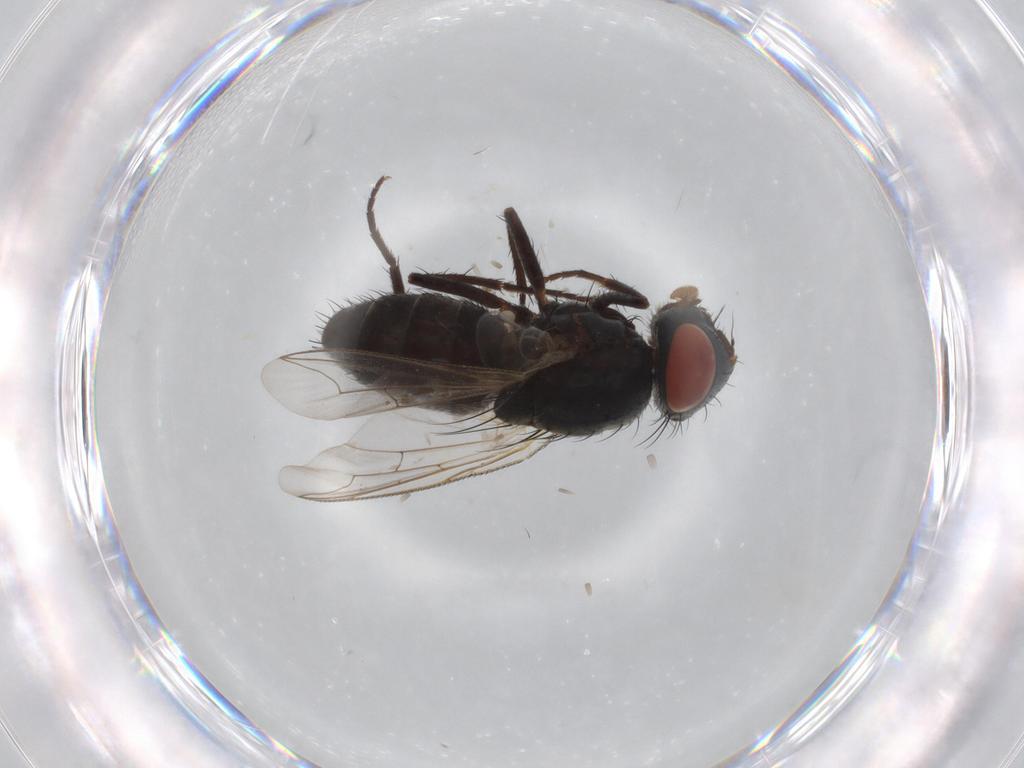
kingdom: Animalia
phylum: Arthropoda
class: Insecta
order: Diptera
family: Sarcophagidae
